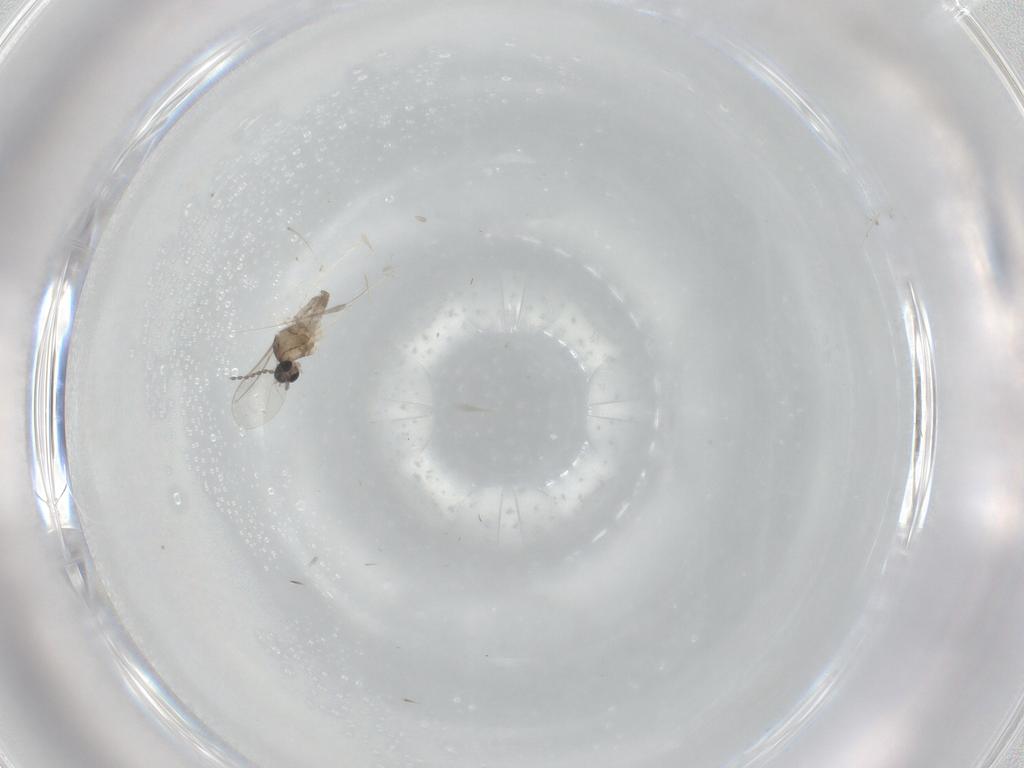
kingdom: Animalia
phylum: Arthropoda
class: Insecta
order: Diptera
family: Cecidomyiidae
